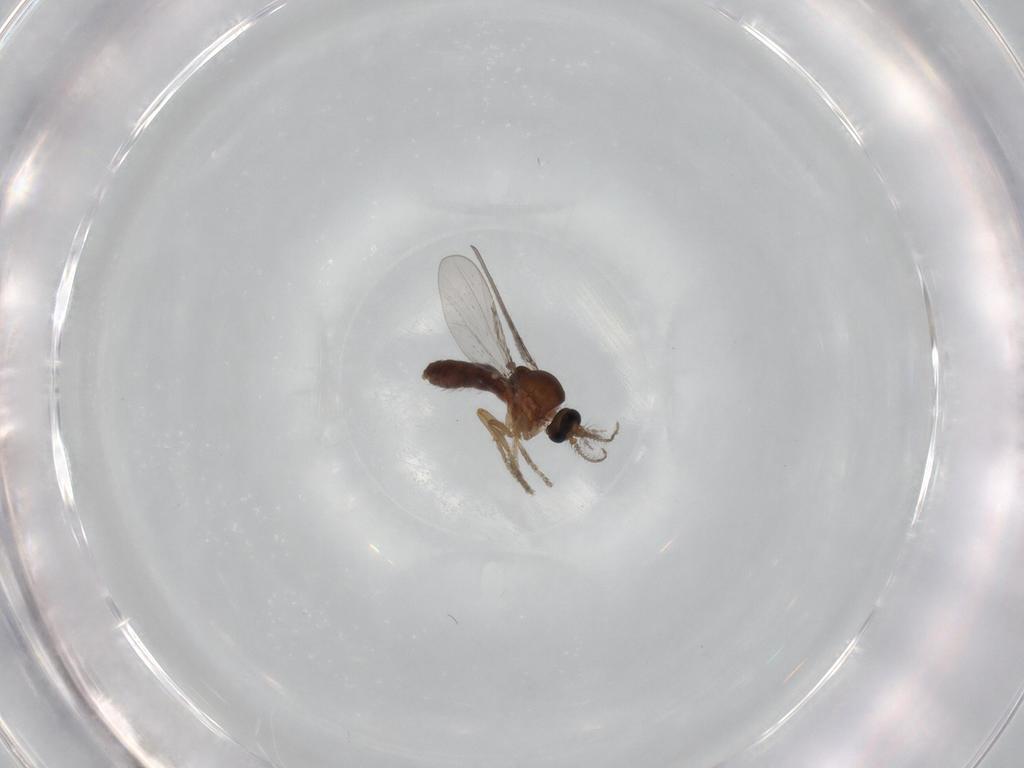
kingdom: Animalia
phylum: Arthropoda
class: Insecta
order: Diptera
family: Ceratopogonidae
